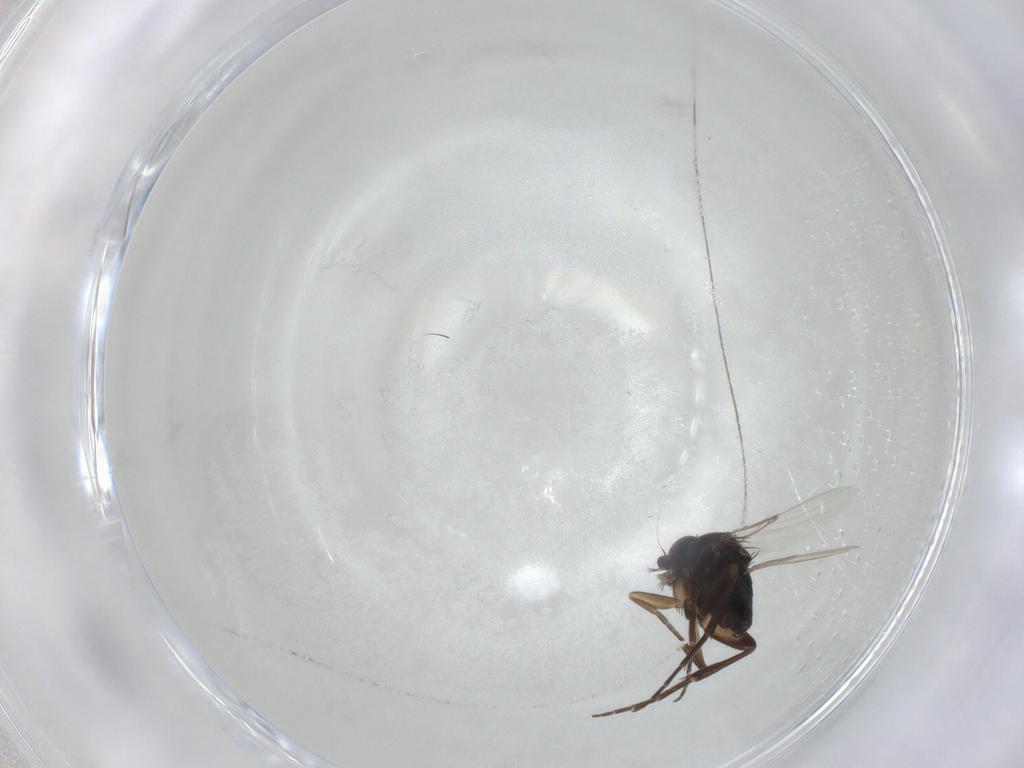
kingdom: Animalia
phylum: Arthropoda
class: Insecta
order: Diptera
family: Phoridae
